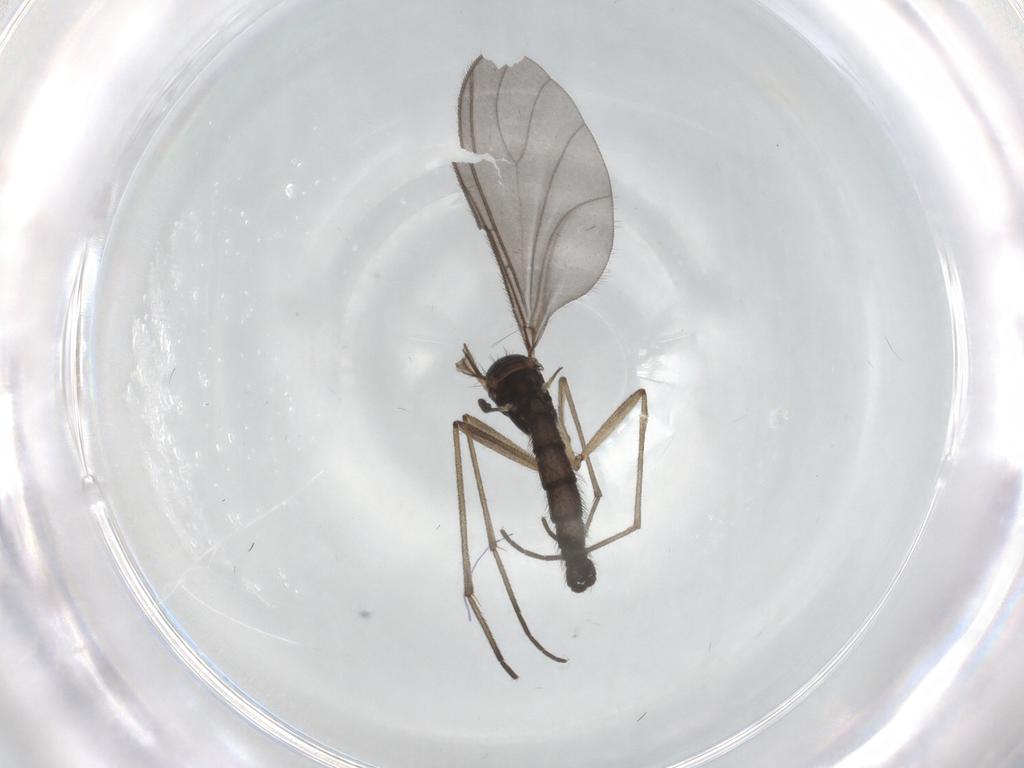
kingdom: Animalia
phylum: Arthropoda
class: Insecta
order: Diptera
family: Sciaridae
